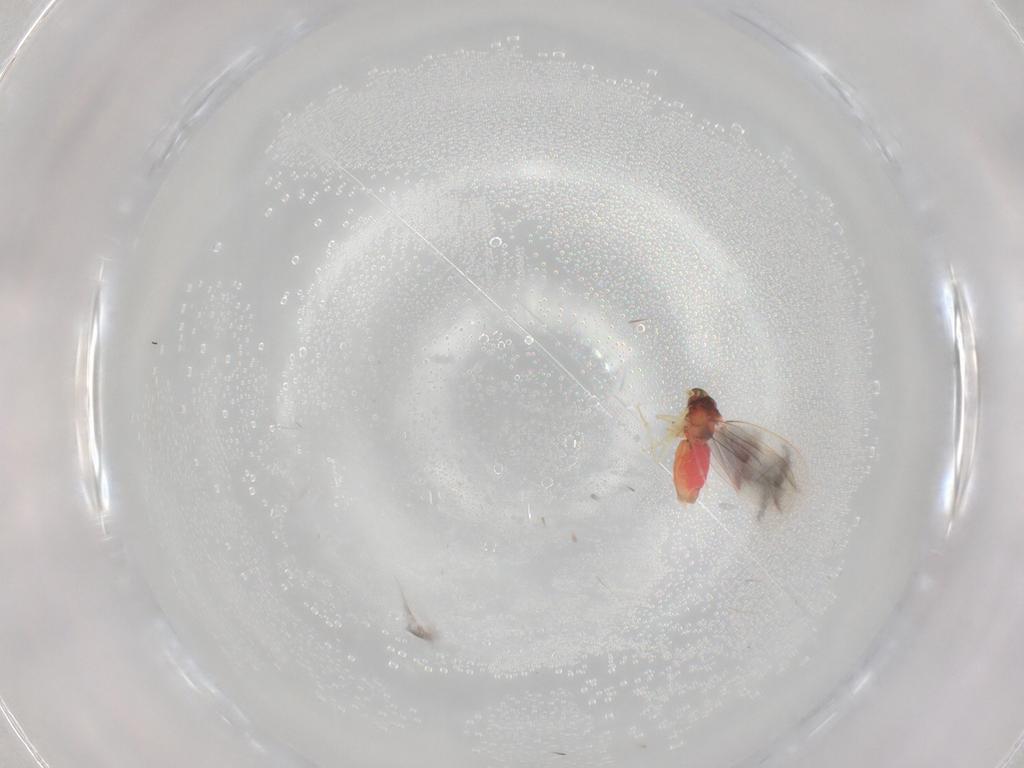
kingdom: Animalia
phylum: Arthropoda
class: Insecta
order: Hemiptera
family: Aleyrodidae
